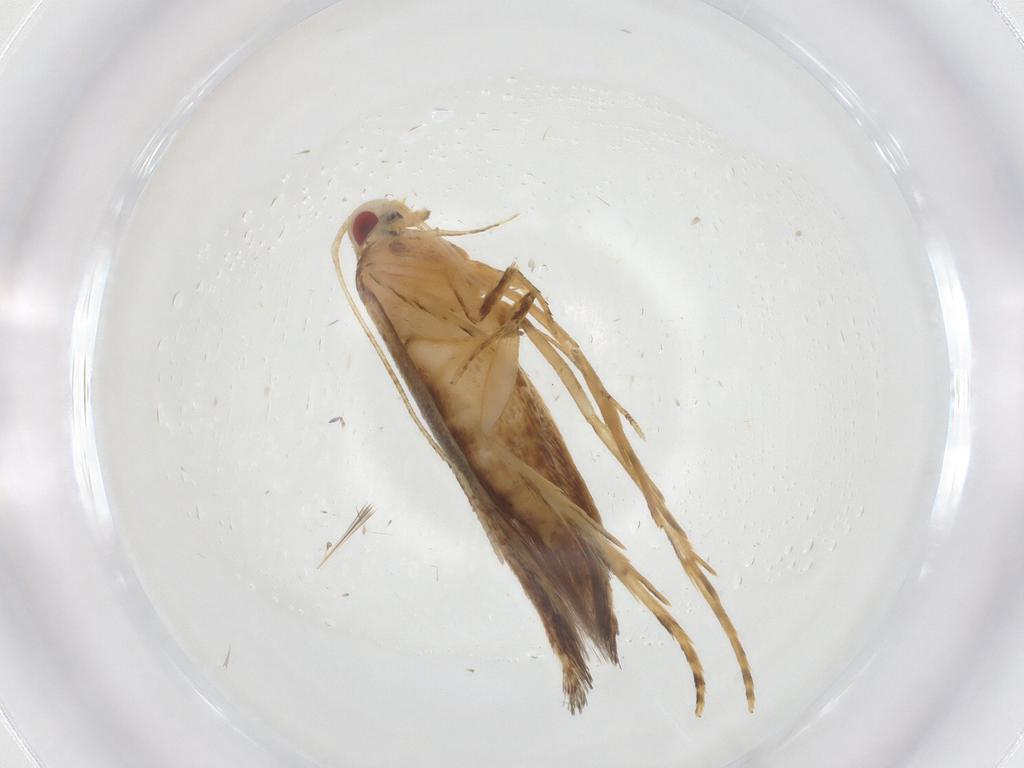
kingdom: Animalia
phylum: Arthropoda
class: Insecta
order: Lepidoptera
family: Cosmopterigidae
